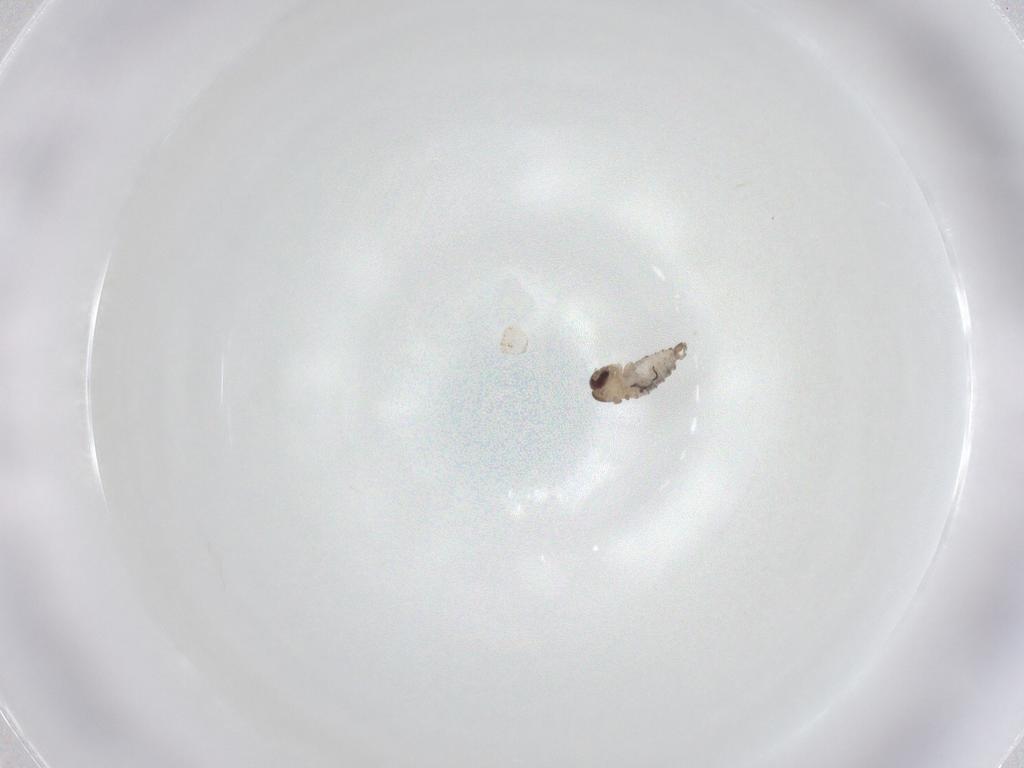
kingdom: Animalia
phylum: Arthropoda
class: Insecta
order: Diptera
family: Psychodidae
